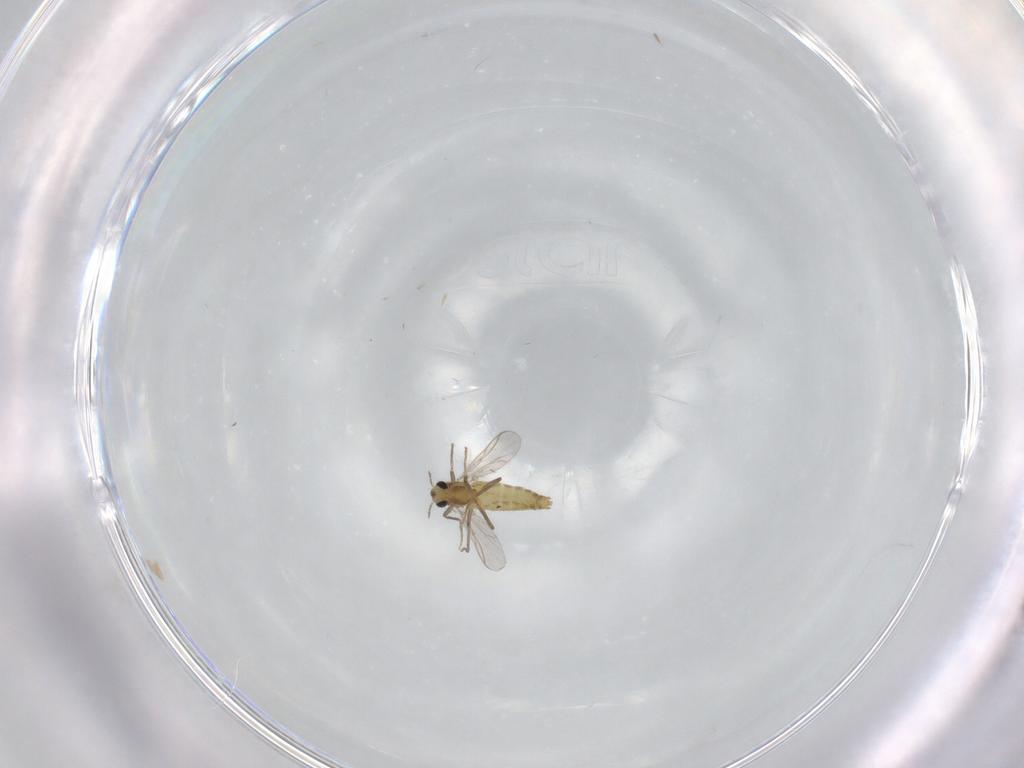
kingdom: Animalia
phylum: Arthropoda
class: Insecta
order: Diptera
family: Chironomidae
